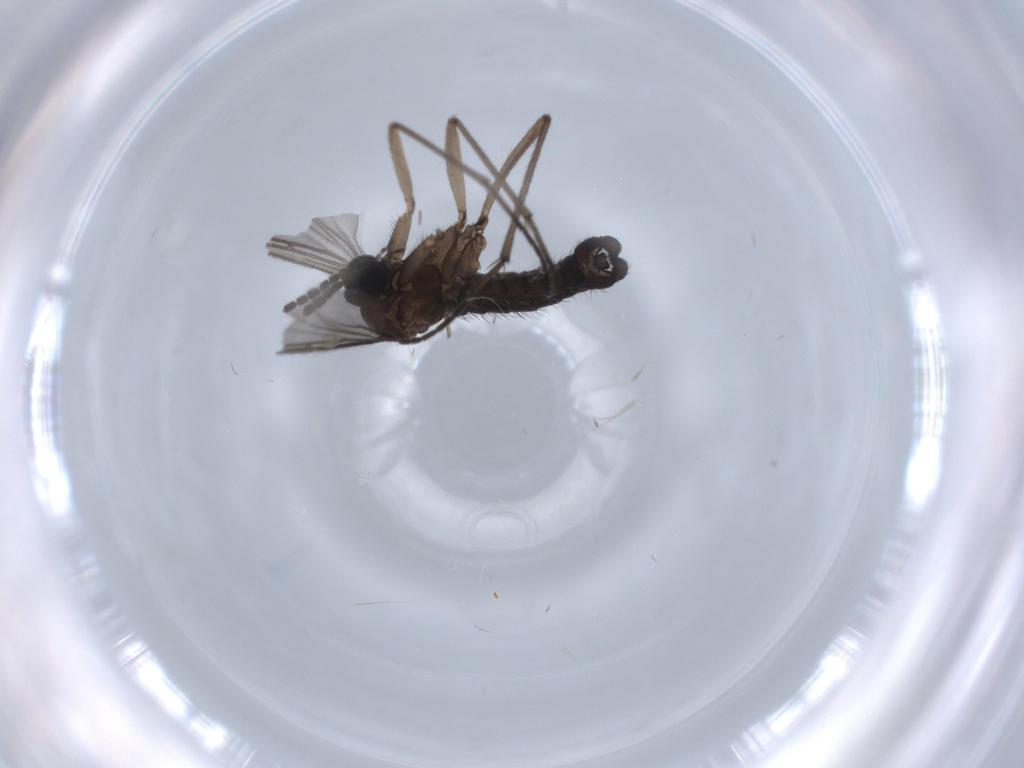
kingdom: Animalia
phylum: Arthropoda
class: Insecta
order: Diptera
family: Sciaridae
